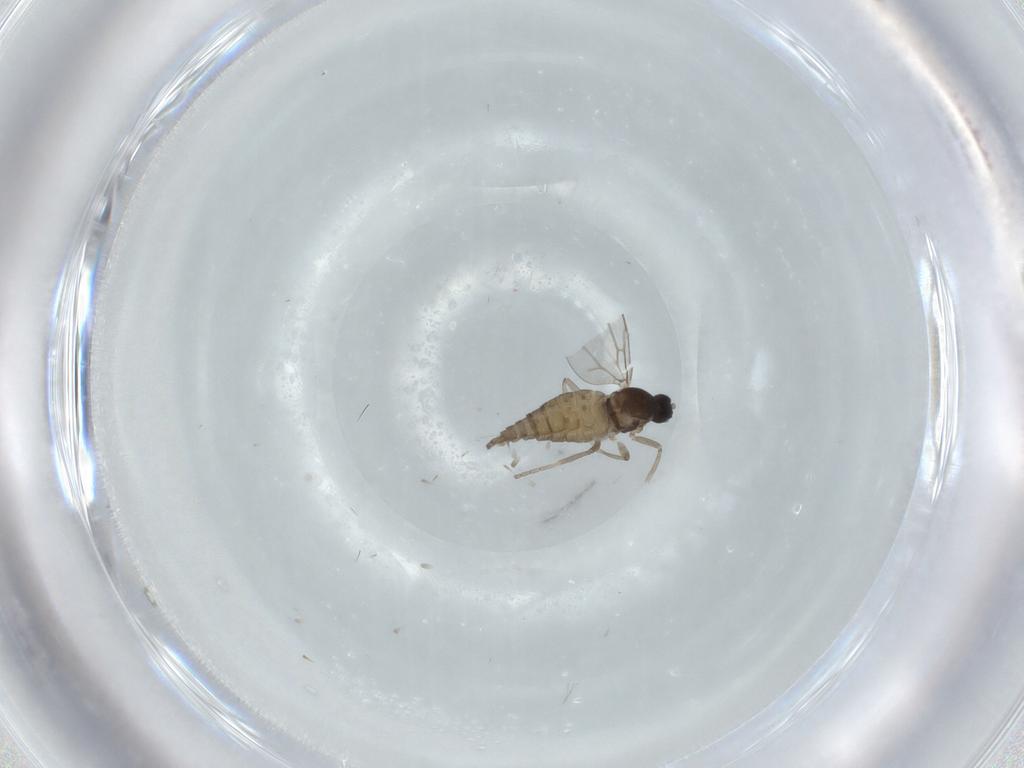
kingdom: Animalia
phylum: Arthropoda
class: Insecta
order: Diptera
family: Cecidomyiidae
